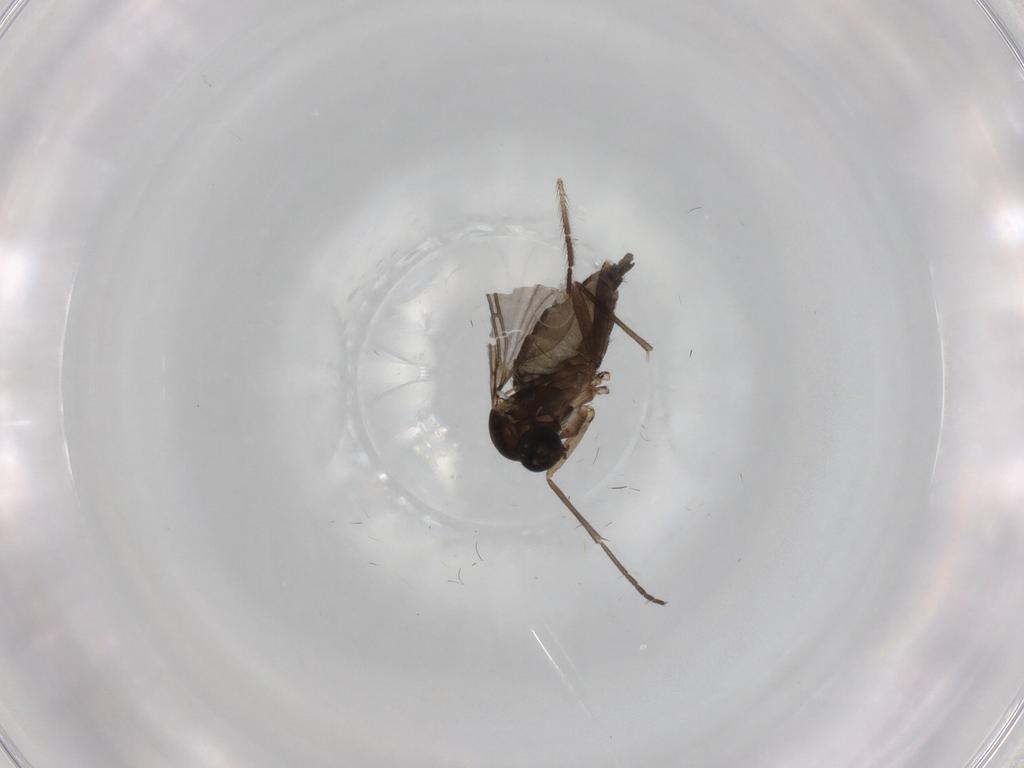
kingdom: Animalia
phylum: Arthropoda
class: Insecta
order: Diptera
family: Sciaridae
